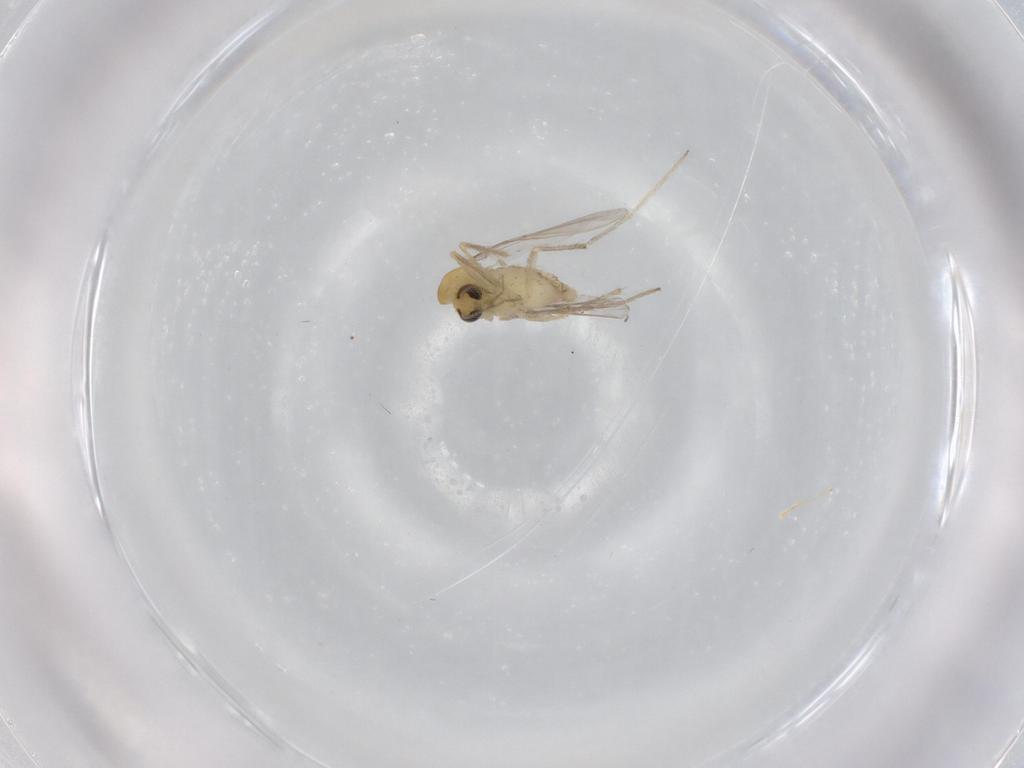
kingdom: Animalia
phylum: Arthropoda
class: Insecta
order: Diptera
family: Chironomidae
